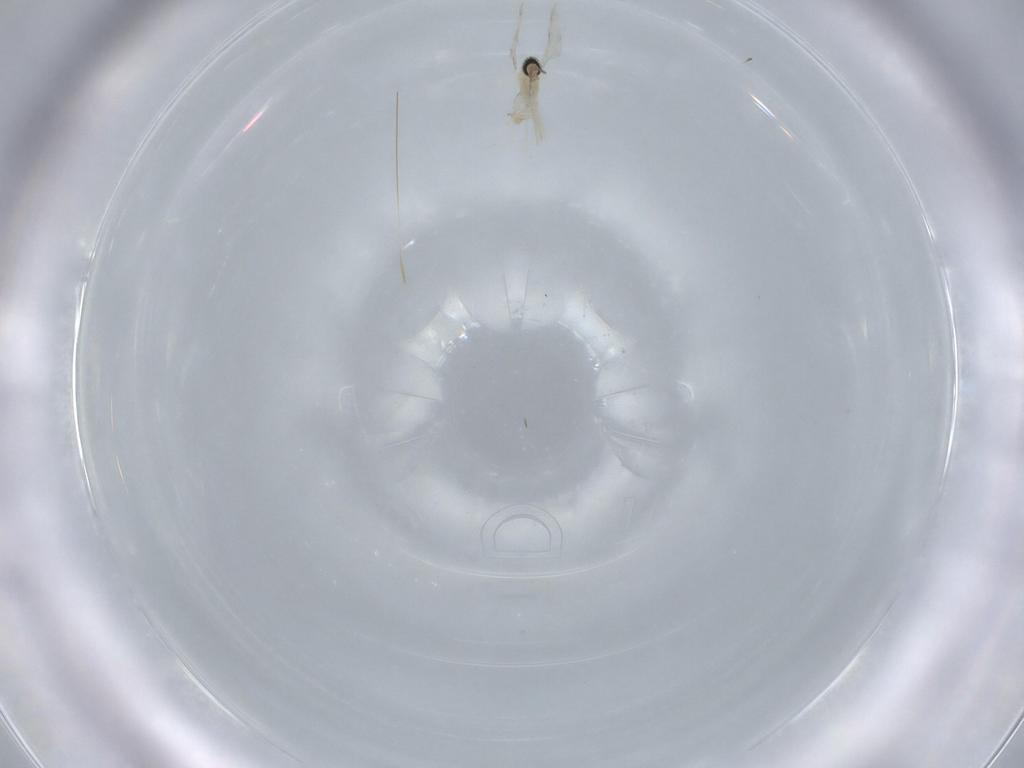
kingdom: Animalia
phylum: Arthropoda
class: Insecta
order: Diptera
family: Cecidomyiidae
